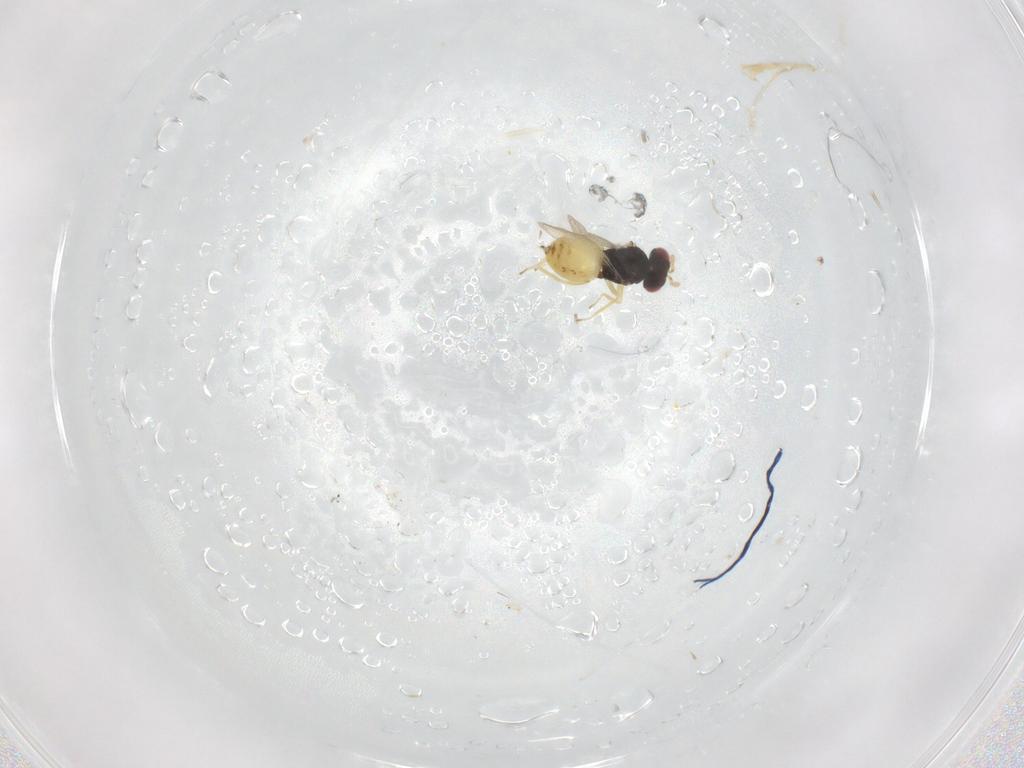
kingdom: Animalia
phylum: Arthropoda
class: Insecta
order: Hymenoptera
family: Eulophidae
